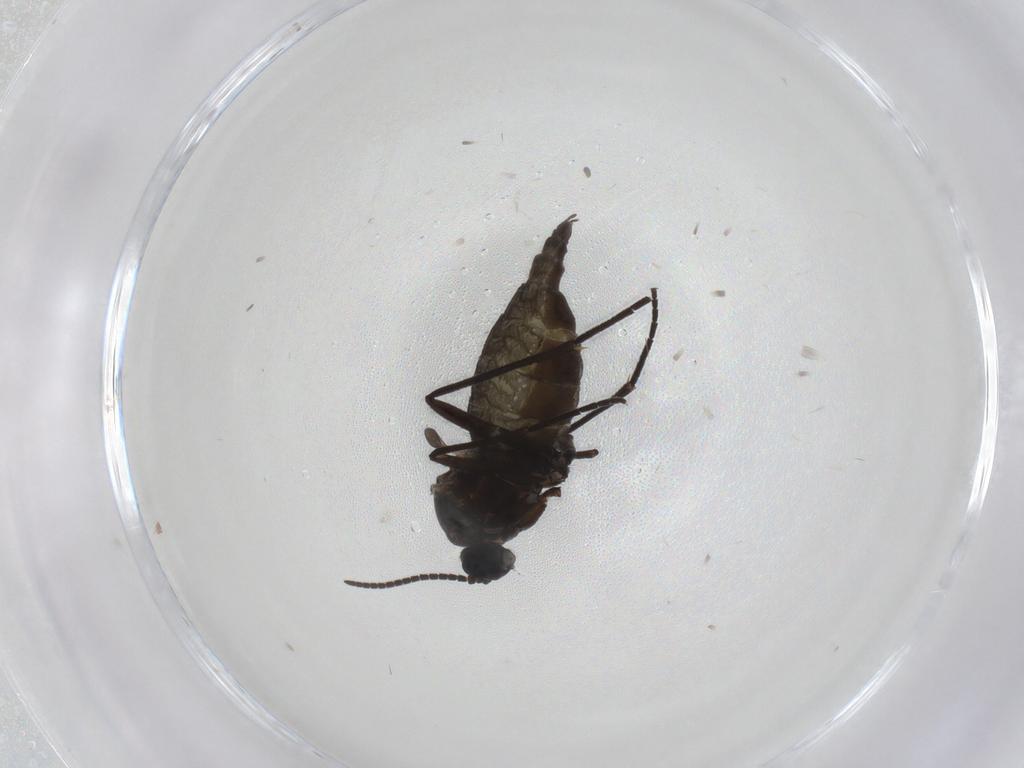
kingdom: Animalia
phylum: Arthropoda
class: Insecta
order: Diptera
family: Sciaridae
